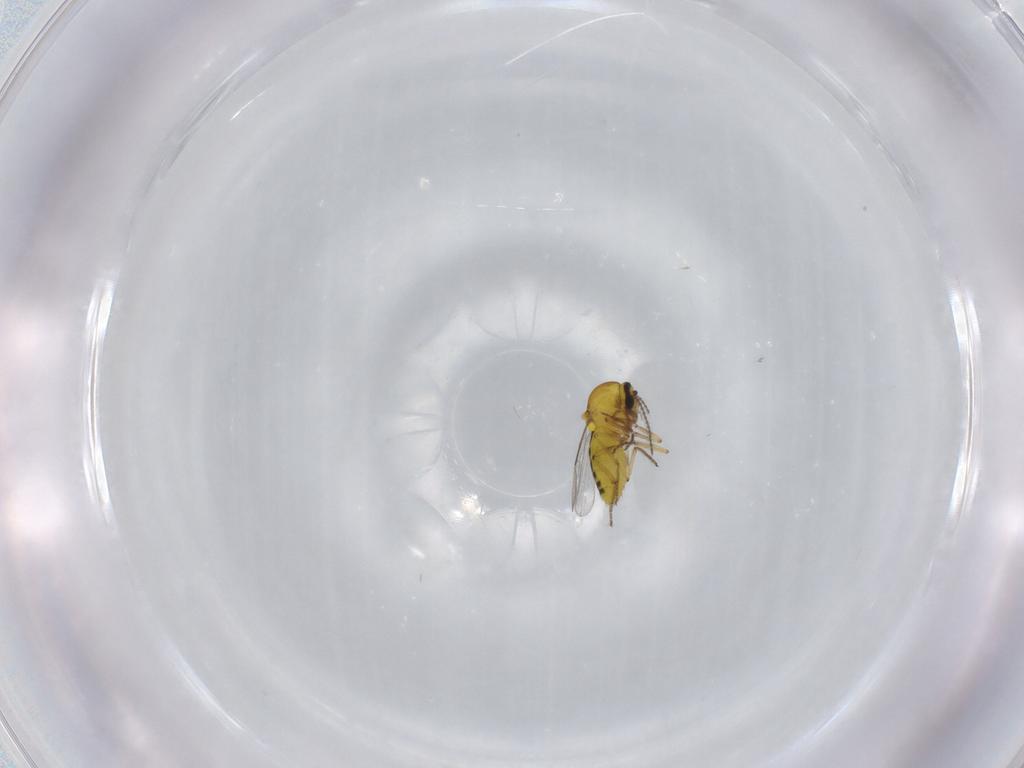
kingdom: Animalia
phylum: Arthropoda
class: Insecta
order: Diptera
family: Ceratopogonidae
